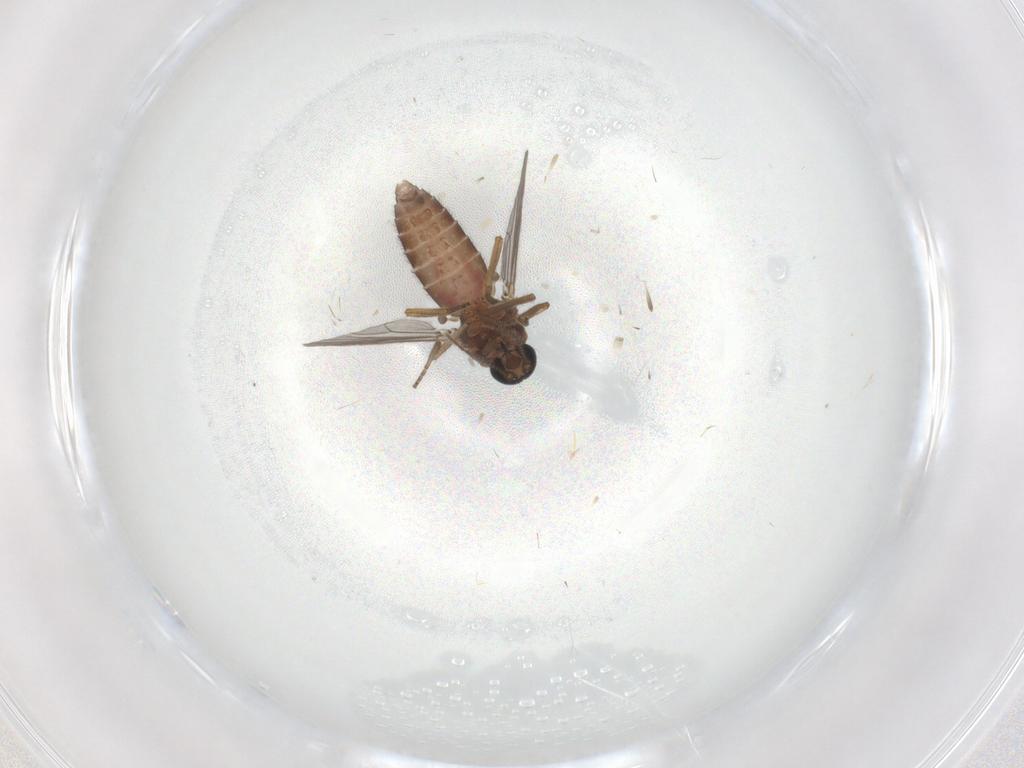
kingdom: Animalia
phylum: Arthropoda
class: Insecta
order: Diptera
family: Ceratopogonidae
